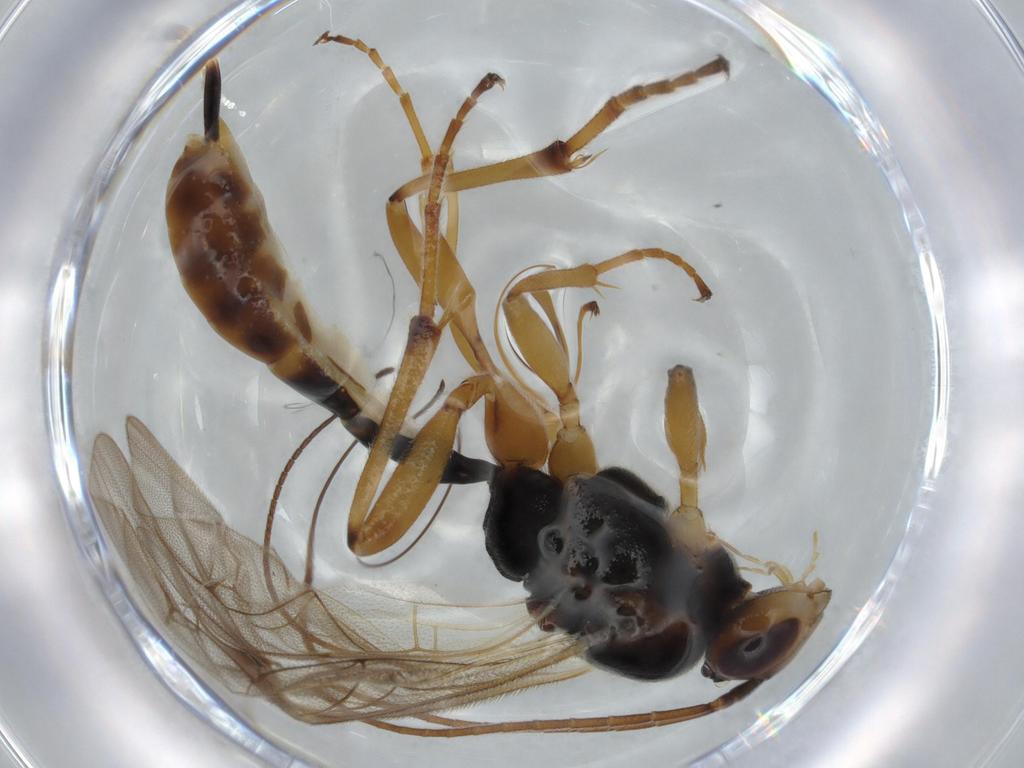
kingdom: Animalia
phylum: Arthropoda
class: Insecta
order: Hymenoptera
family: Ichneumonidae
